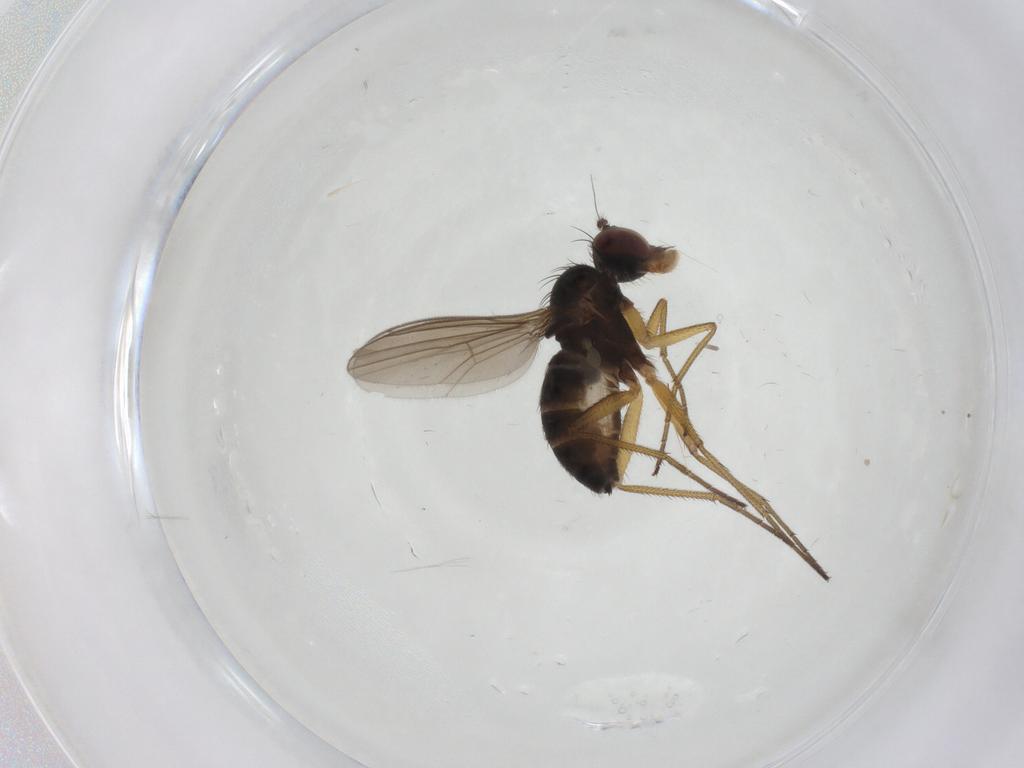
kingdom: Animalia
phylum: Arthropoda
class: Insecta
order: Diptera
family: Dolichopodidae
